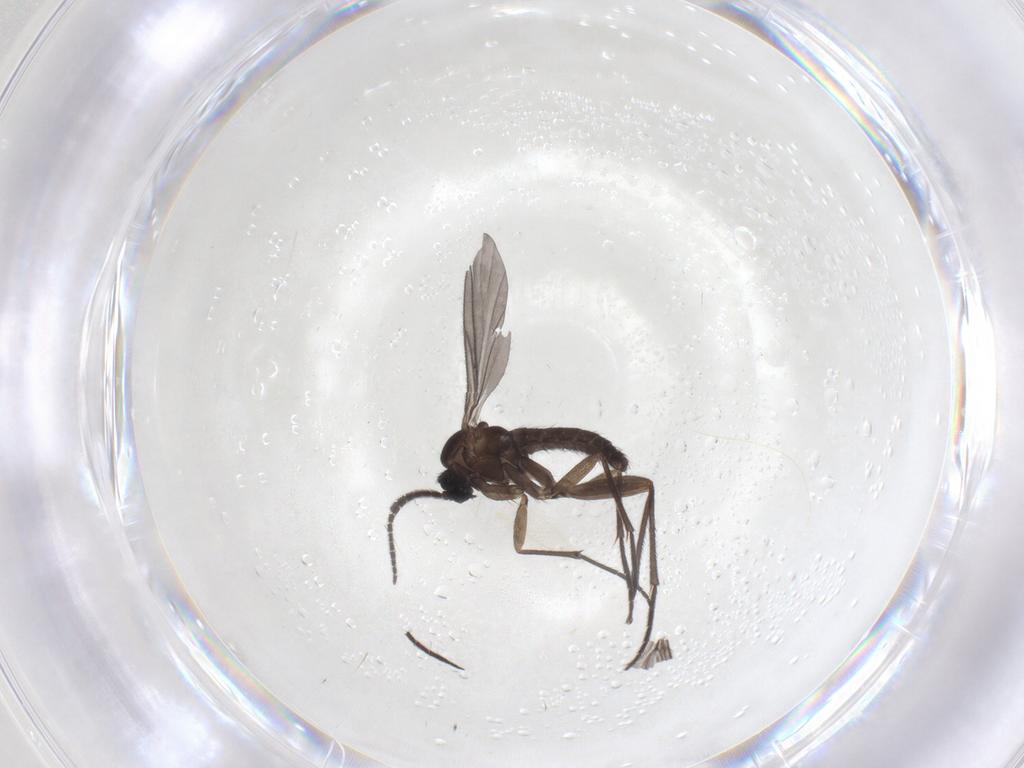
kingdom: Animalia
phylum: Arthropoda
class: Insecta
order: Diptera
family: Sciaridae
